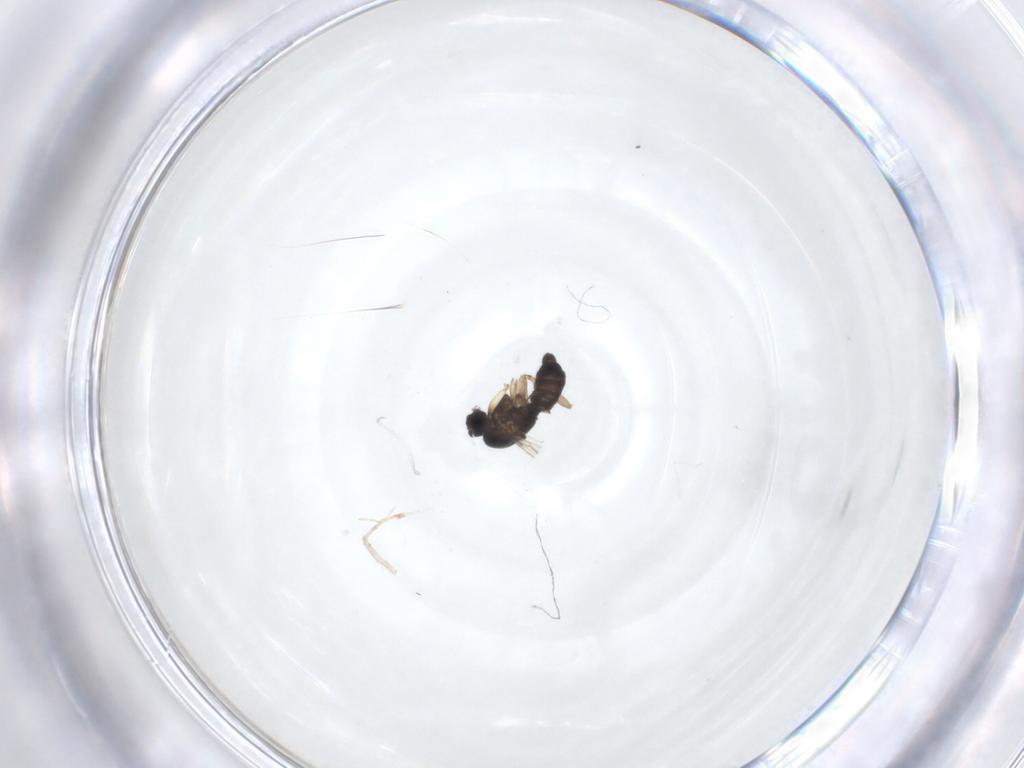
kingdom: Animalia
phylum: Arthropoda
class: Insecta
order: Diptera
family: Sciaridae
